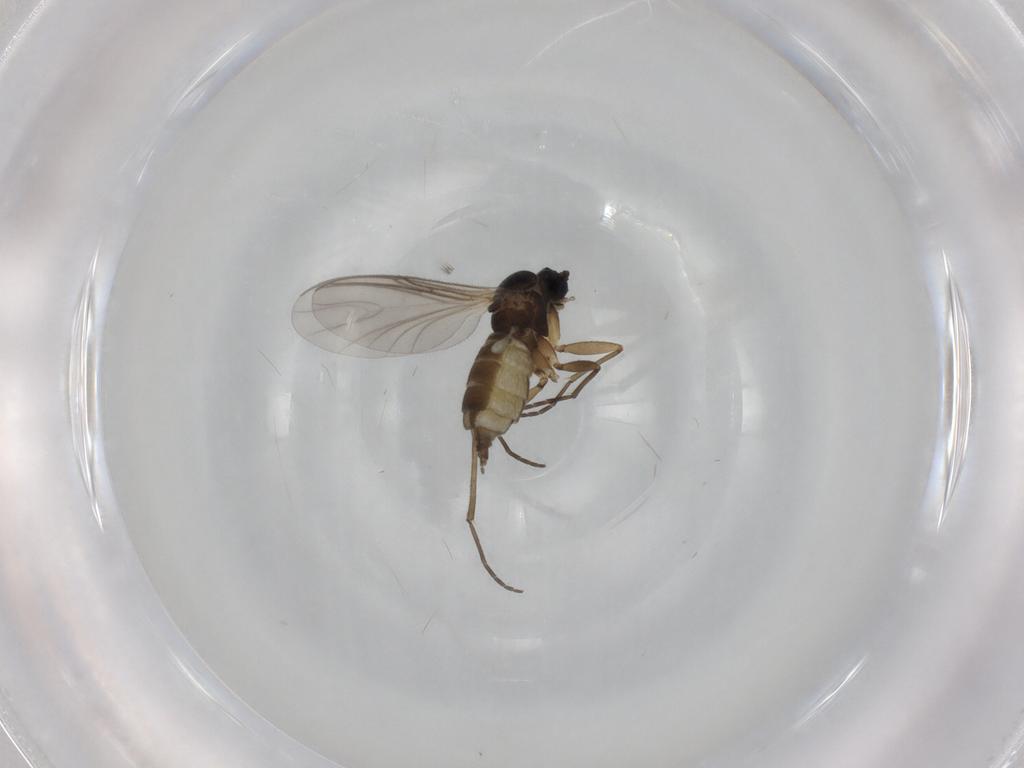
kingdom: Animalia
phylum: Arthropoda
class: Insecta
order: Diptera
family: Sciaridae
